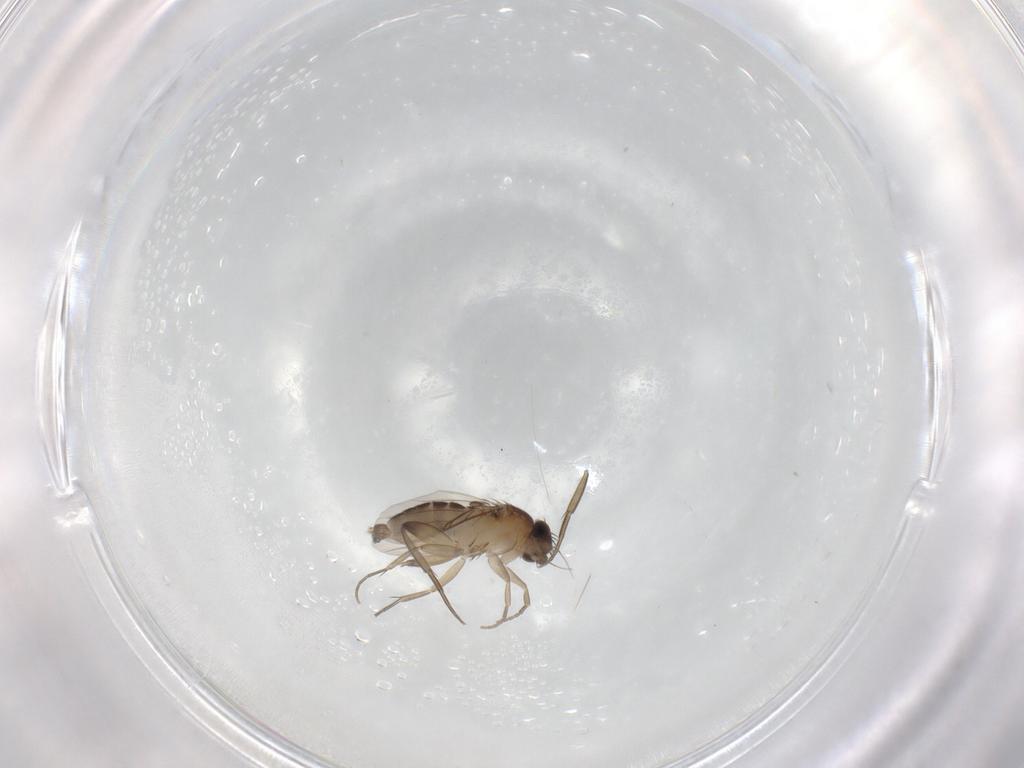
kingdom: Animalia
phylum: Arthropoda
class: Insecta
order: Diptera
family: Phoridae
